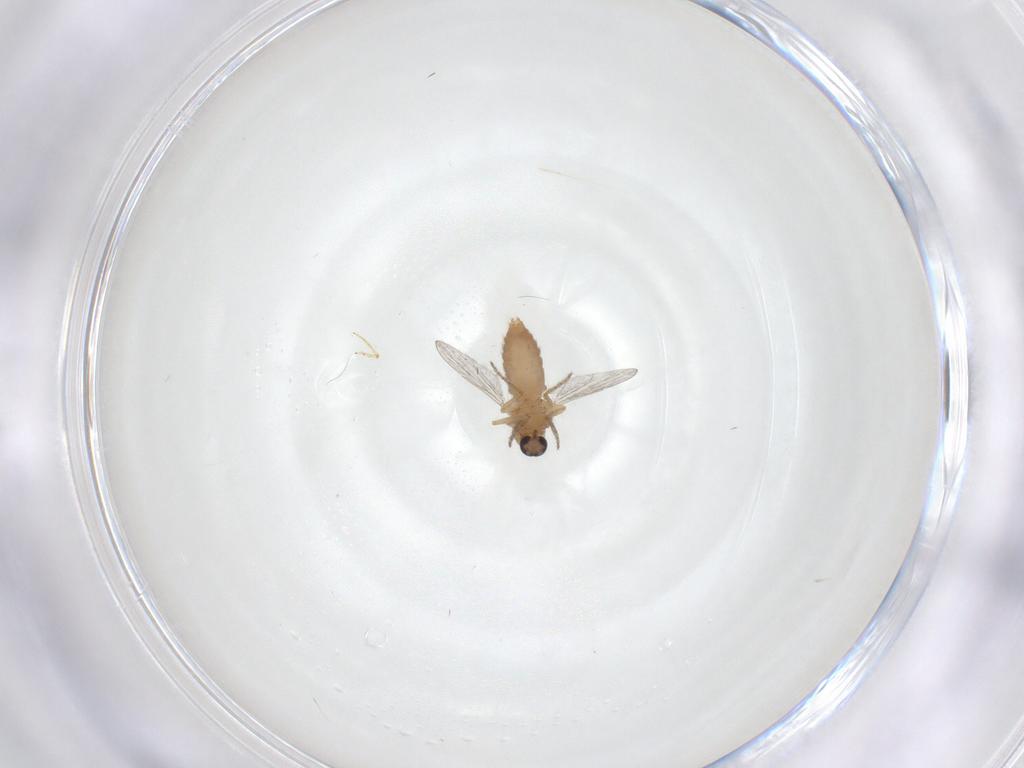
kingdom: Animalia
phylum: Arthropoda
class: Insecta
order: Diptera
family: Ceratopogonidae
